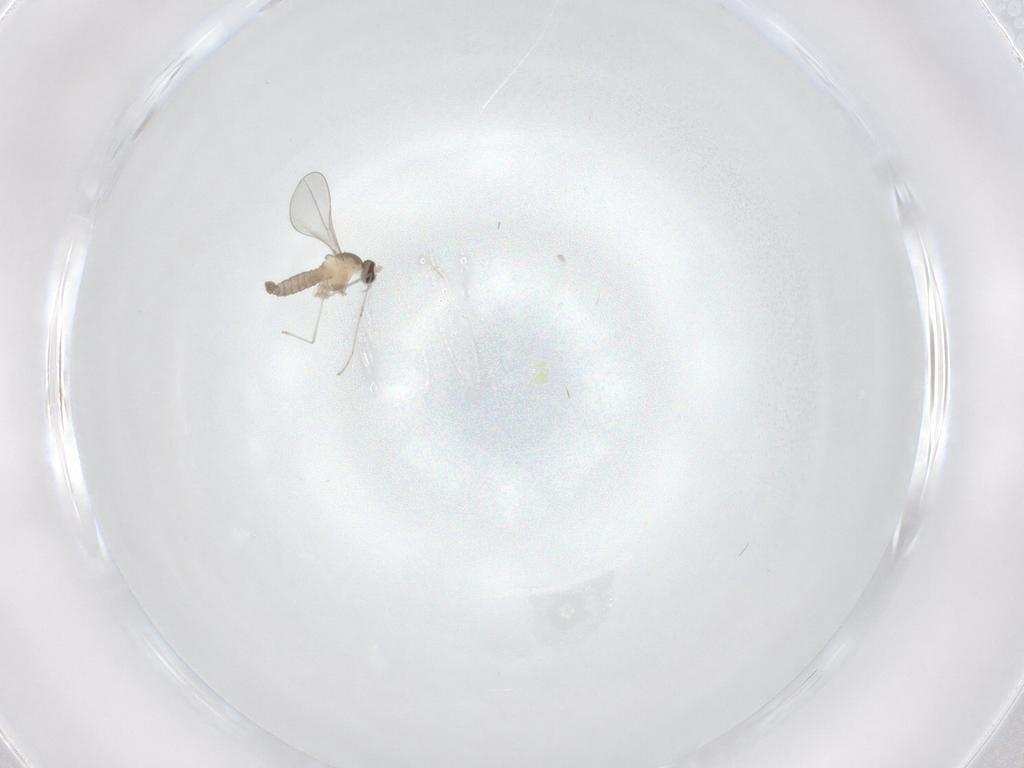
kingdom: Animalia
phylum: Arthropoda
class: Insecta
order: Diptera
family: Cecidomyiidae
